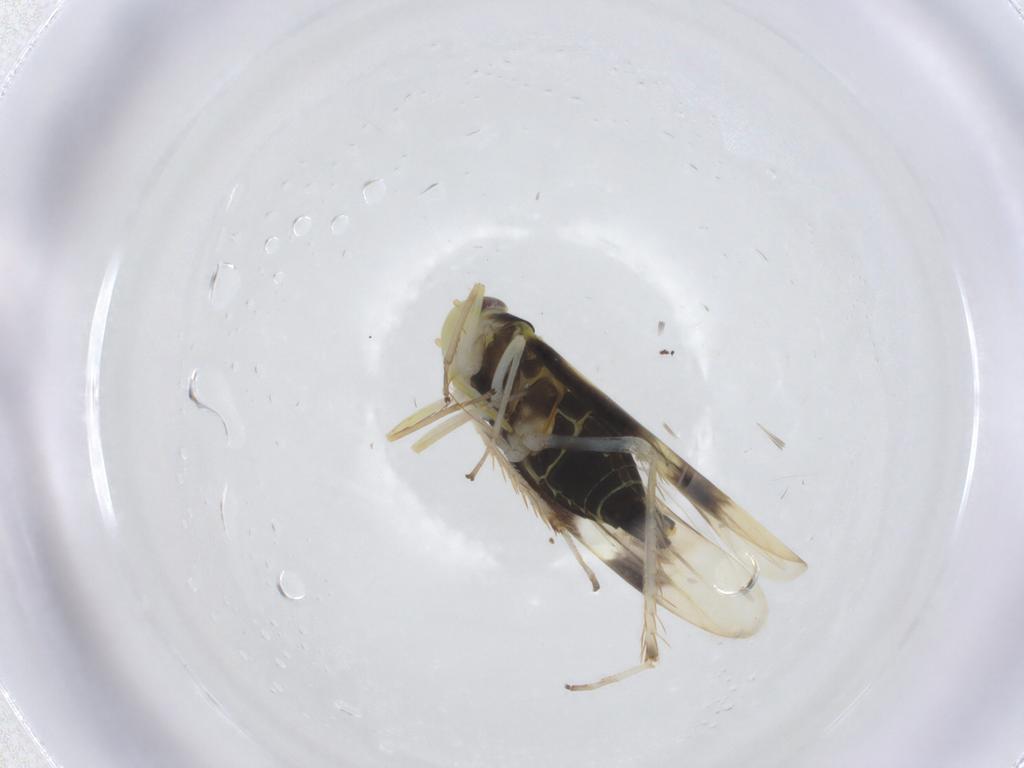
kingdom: Animalia
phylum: Arthropoda
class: Insecta
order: Hemiptera
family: Cicadellidae
